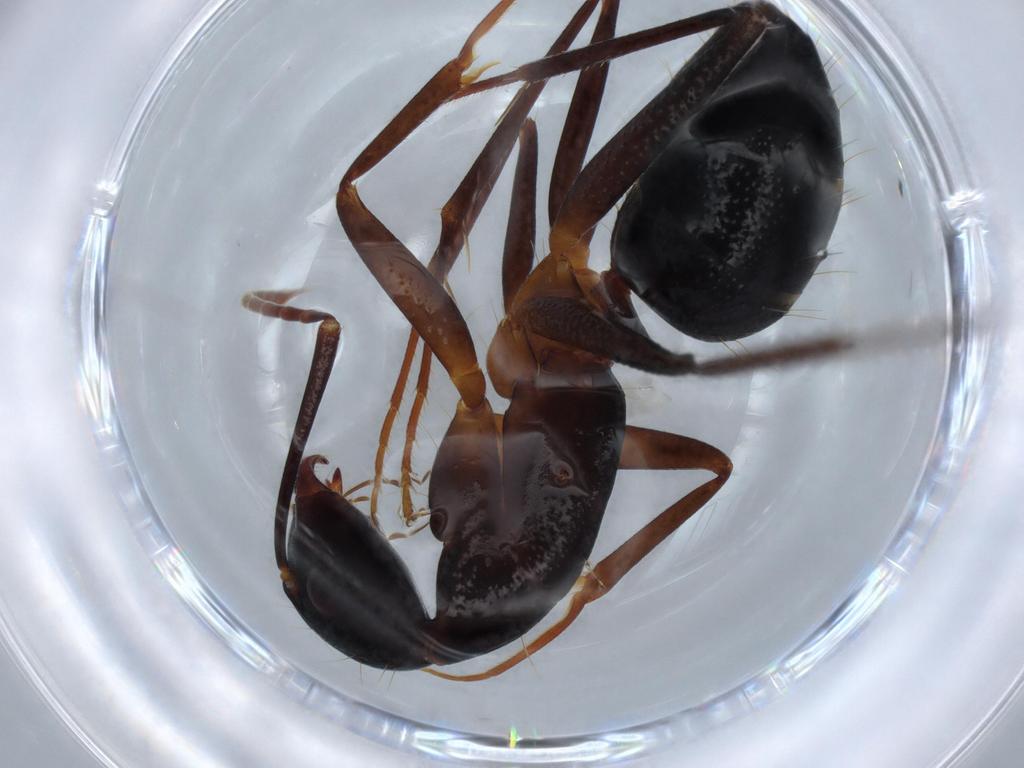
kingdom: Animalia
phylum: Arthropoda
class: Insecta
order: Hymenoptera
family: Formicidae
